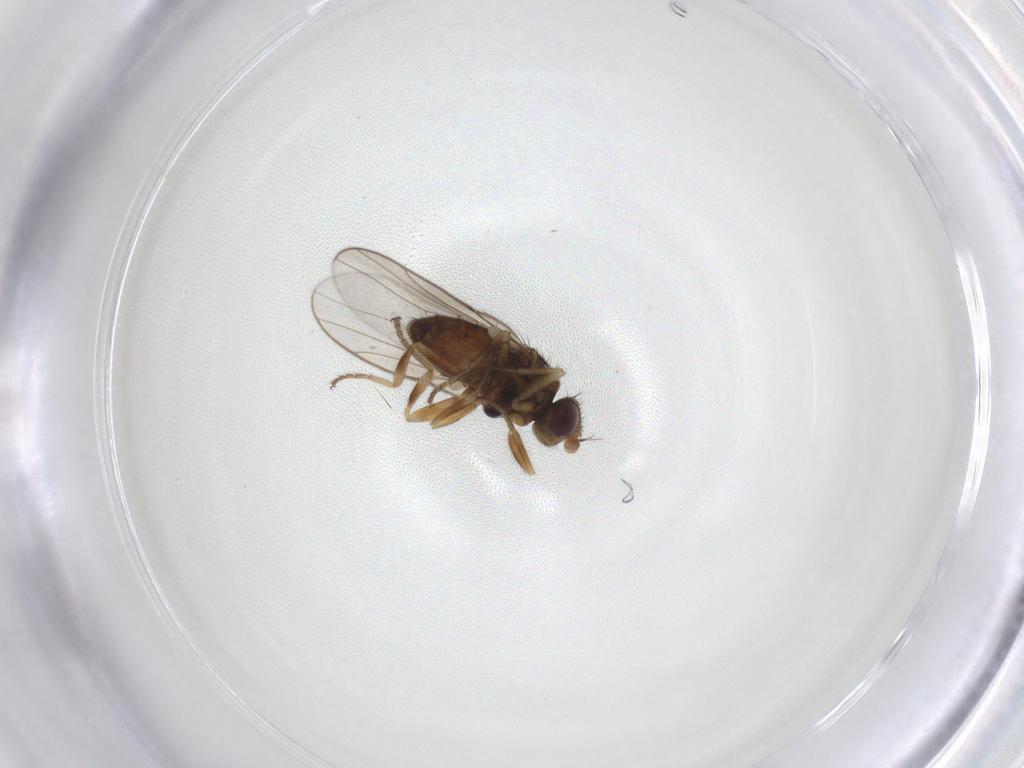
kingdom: Animalia
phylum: Arthropoda
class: Insecta
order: Diptera
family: Chloropidae
